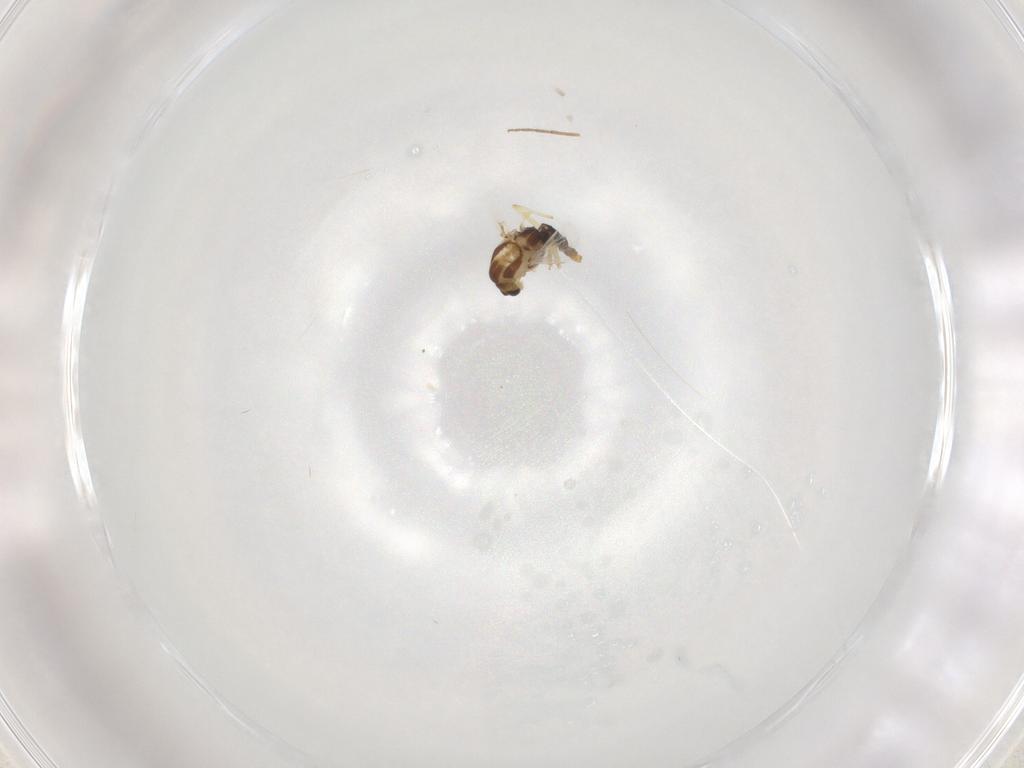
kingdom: Animalia
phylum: Arthropoda
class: Insecta
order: Diptera
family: Chironomidae
